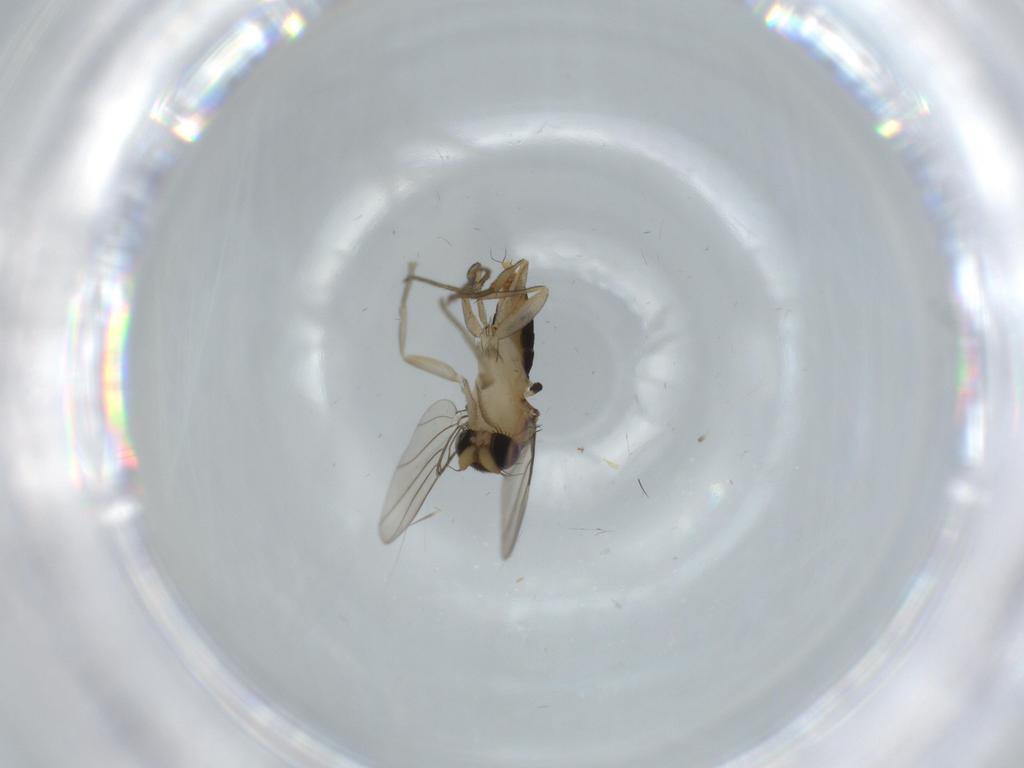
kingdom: Animalia
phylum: Arthropoda
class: Insecta
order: Diptera
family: Phoridae
